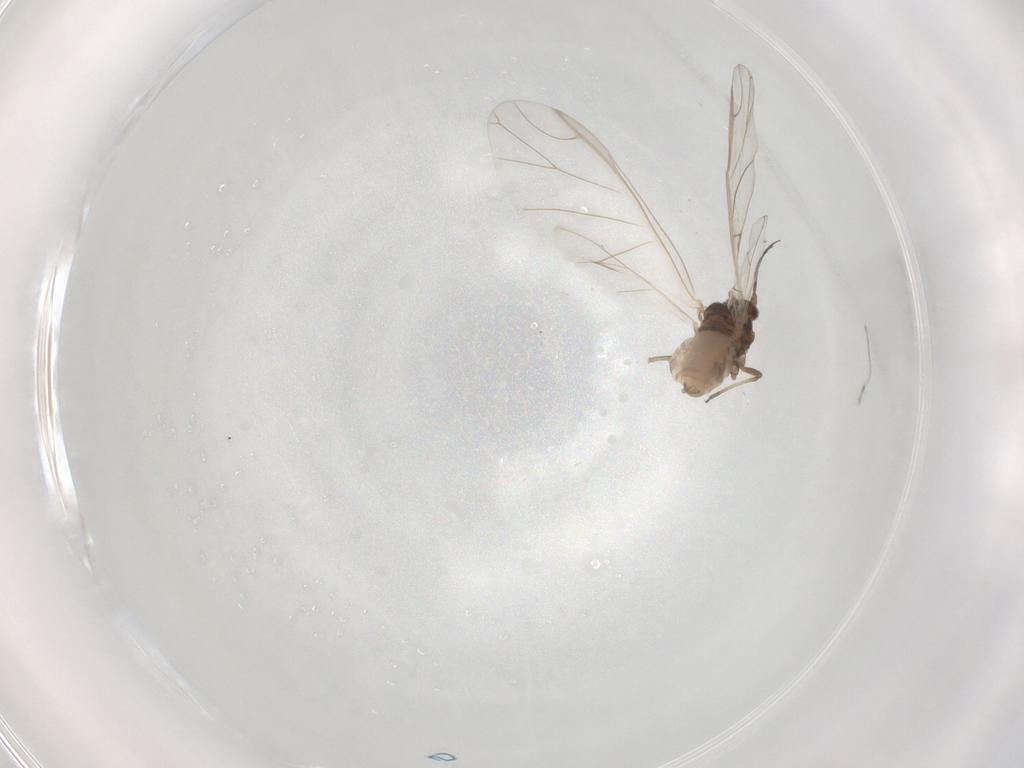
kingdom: Animalia
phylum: Arthropoda
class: Insecta
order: Hemiptera
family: Aphididae
